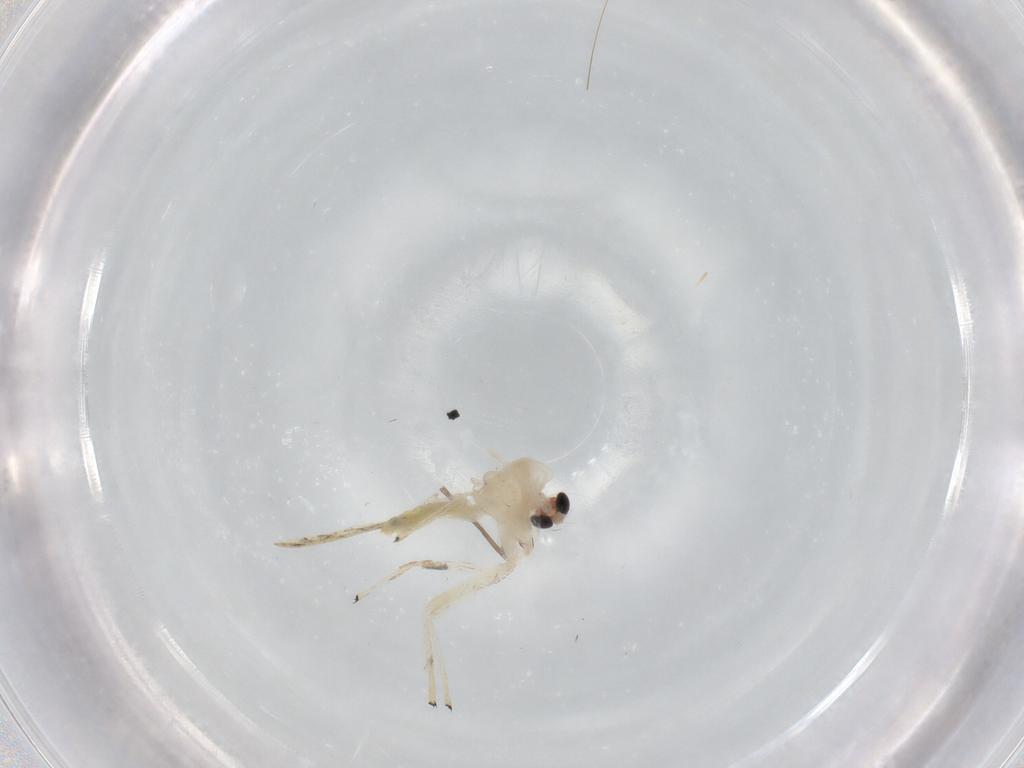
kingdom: Animalia
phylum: Arthropoda
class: Insecta
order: Diptera
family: Chironomidae
